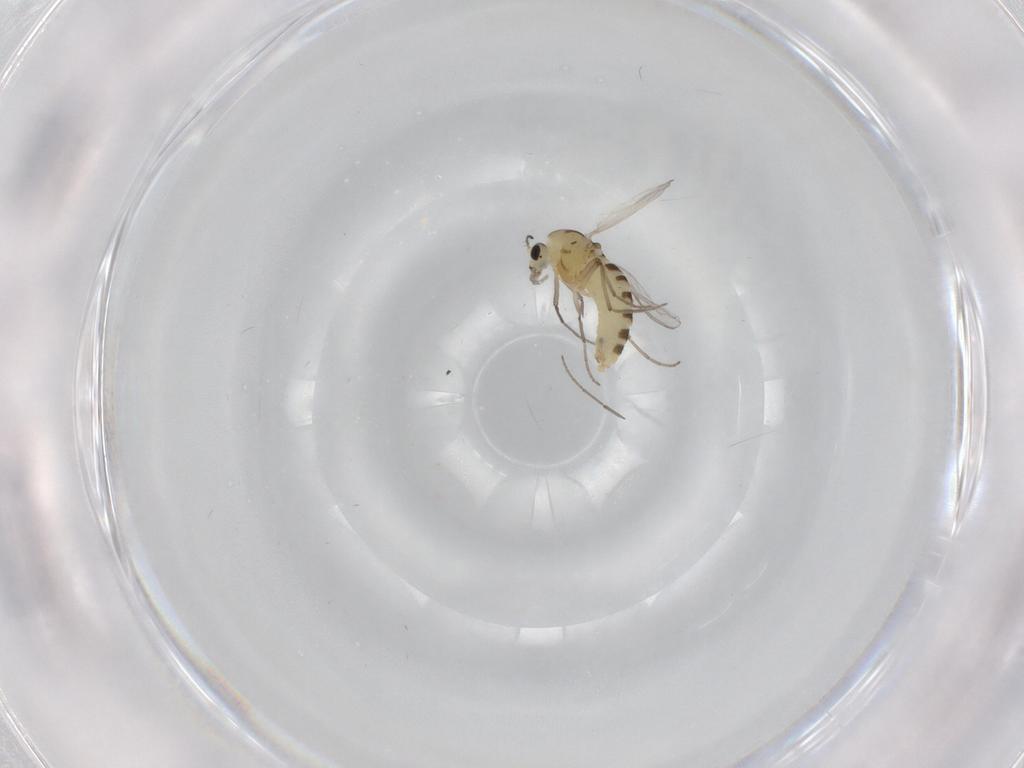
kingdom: Animalia
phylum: Arthropoda
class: Insecta
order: Diptera
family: Chironomidae
